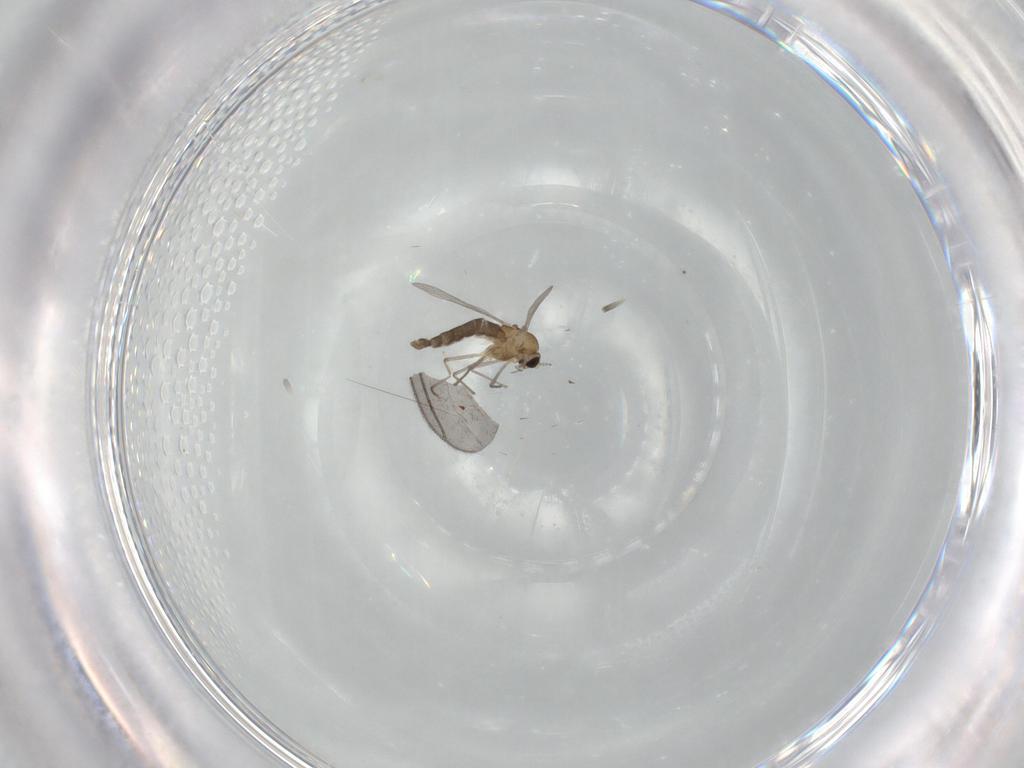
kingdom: Animalia
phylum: Arthropoda
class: Insecta
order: Diptera
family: Chironomidae
